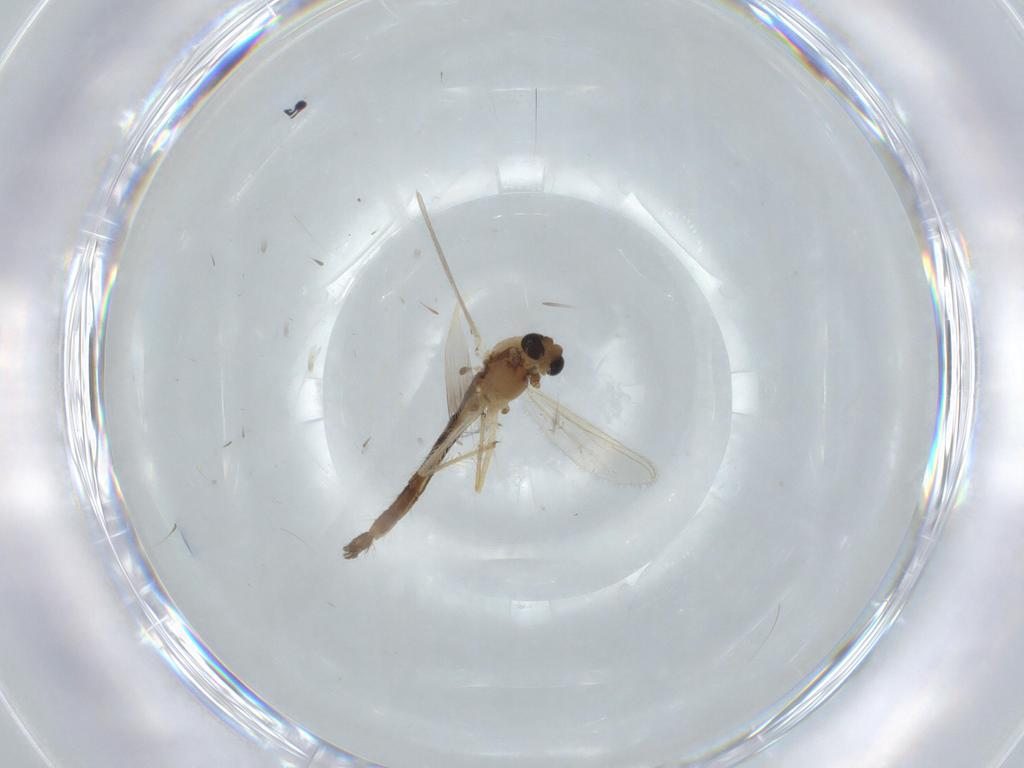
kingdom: Animalia
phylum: Arthropoda
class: Insecta
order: Diptera
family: Chironomidae
